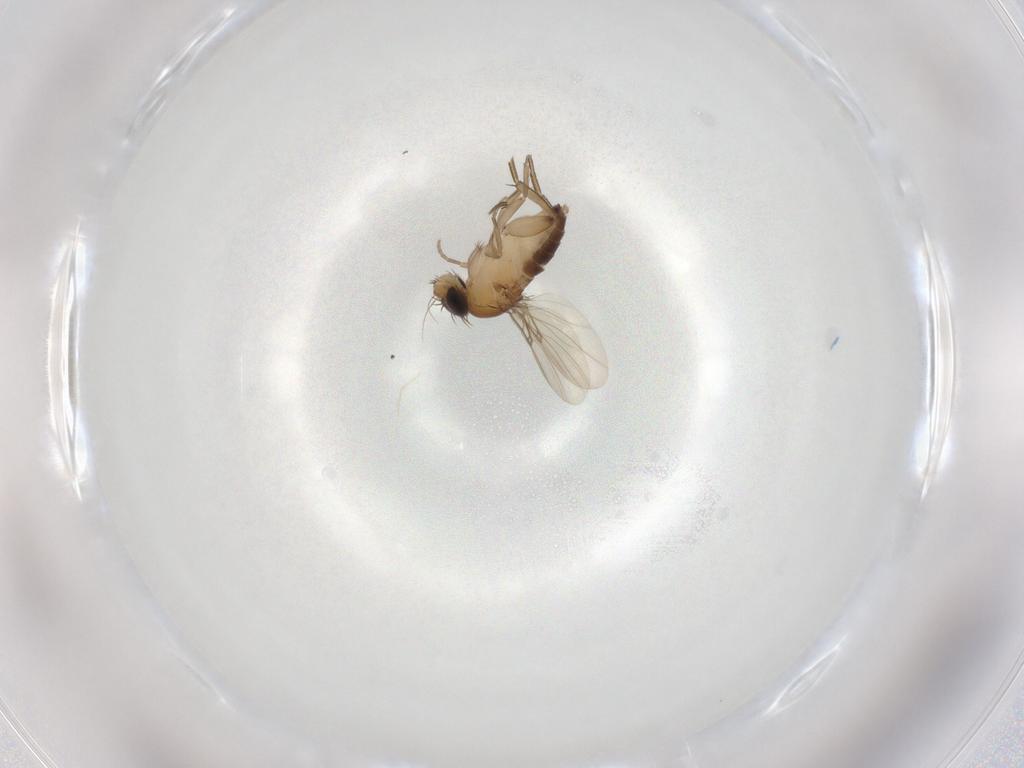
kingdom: Animalia
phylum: Arthropoda
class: Insecta
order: Diptera
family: Phoridae
